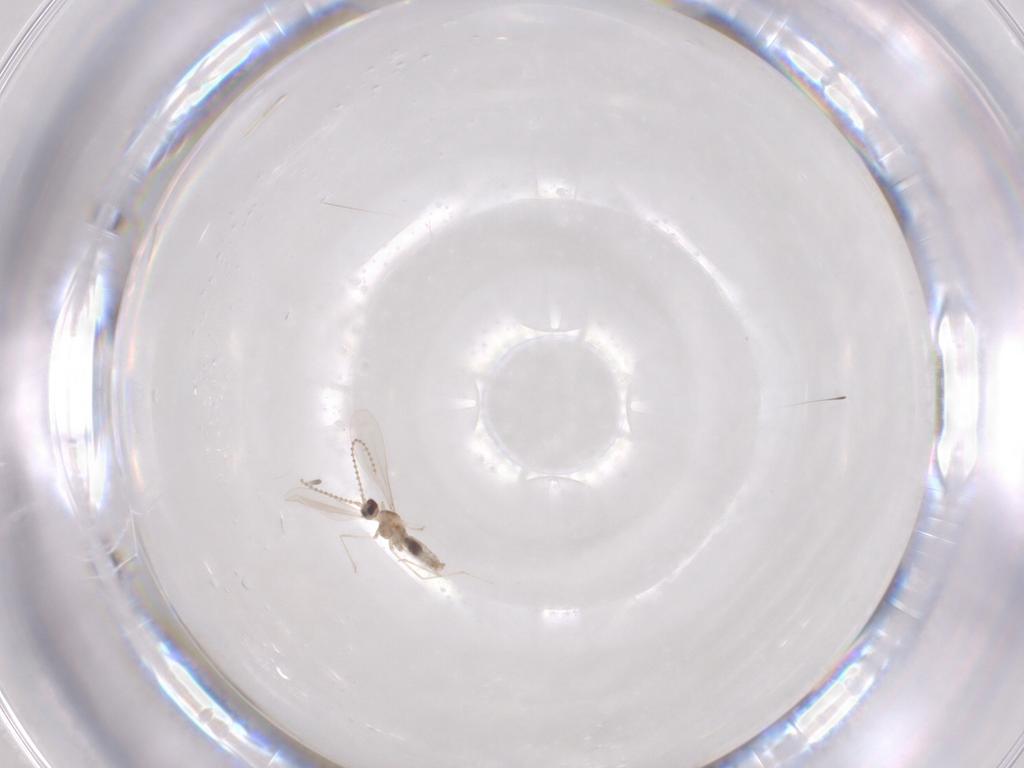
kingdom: Animalia
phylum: Arthropoda
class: Insecta
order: Diptera
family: Cecidomyiidae
